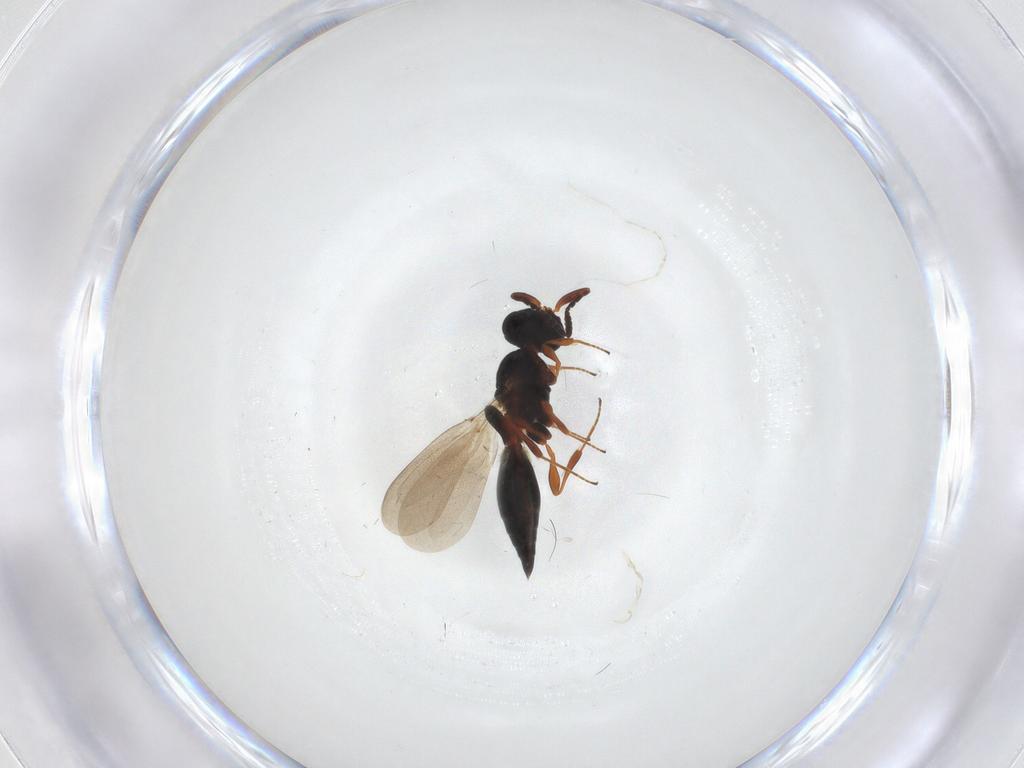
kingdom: Animalia
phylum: Arthropoda
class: Insecta
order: Hymenoptera
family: Platygastridae
